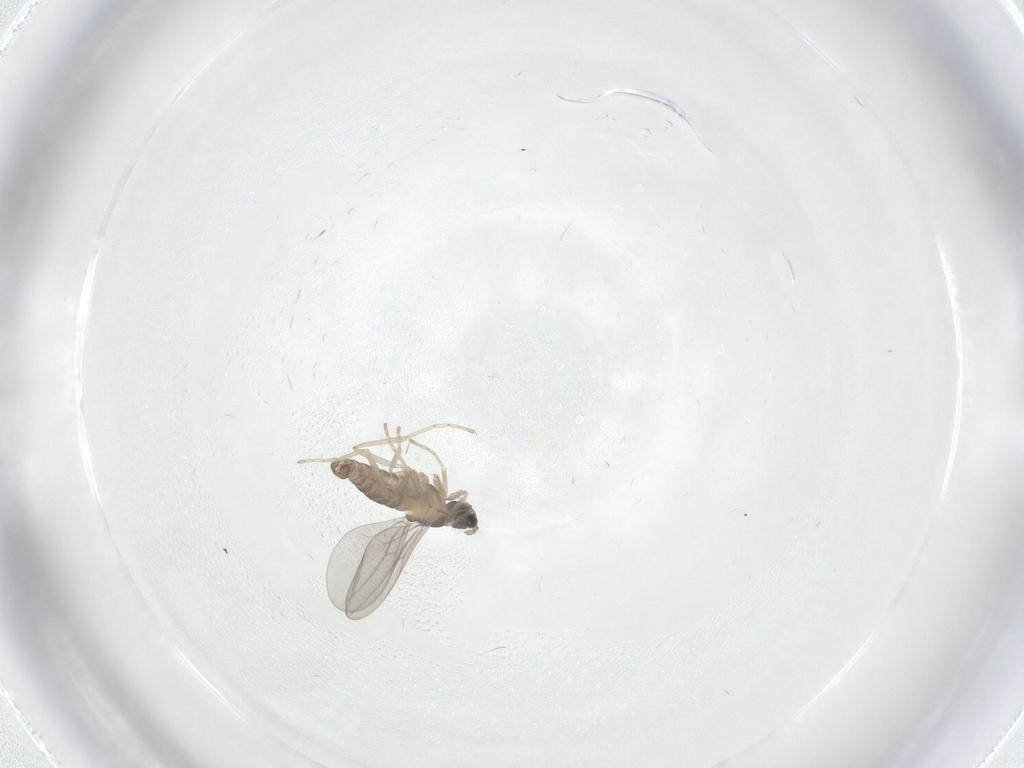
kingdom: Animalia
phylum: Arthropoda
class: Insecta
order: Diptera
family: Cecidomyiidae
